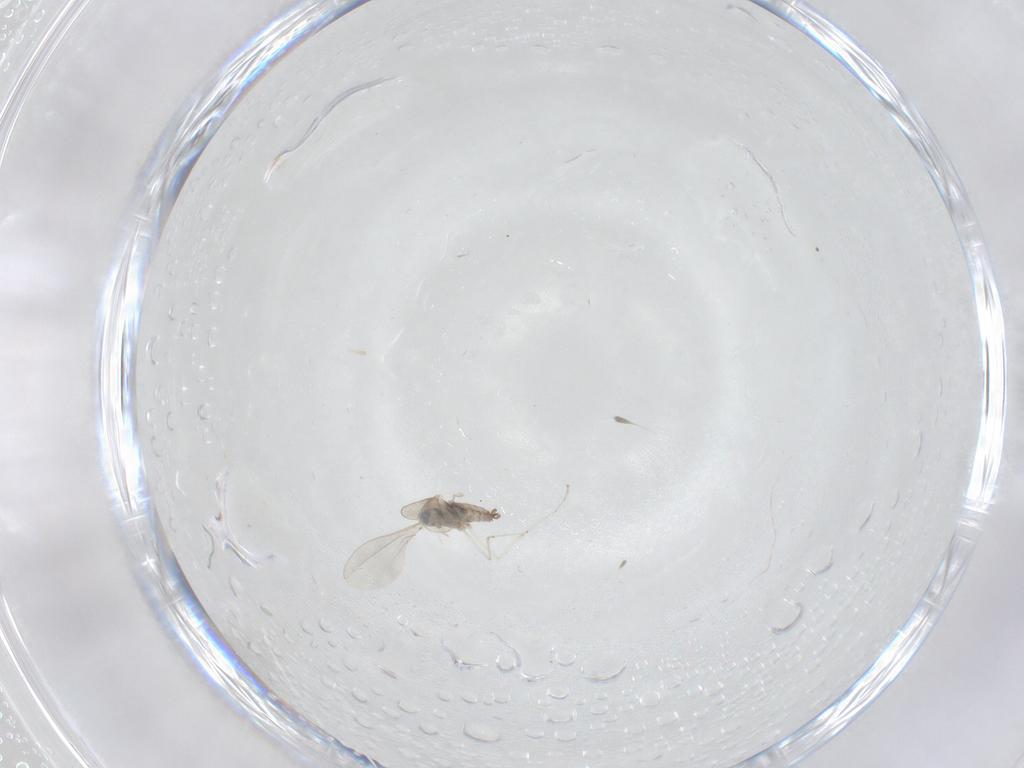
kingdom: Animalia
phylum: Arthropoda
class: Insecta
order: Diptera
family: Cecidomyiidae
